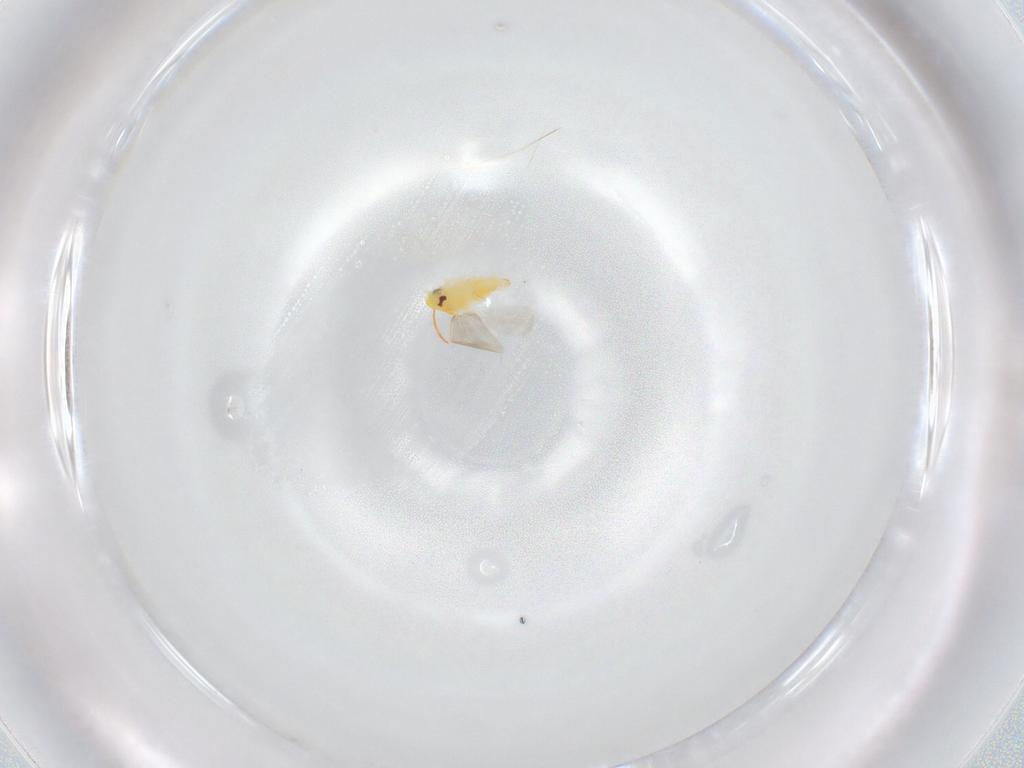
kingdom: Animalia
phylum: Arthropoda
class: Insecta
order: Hemiptera
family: Aleyrodidae
